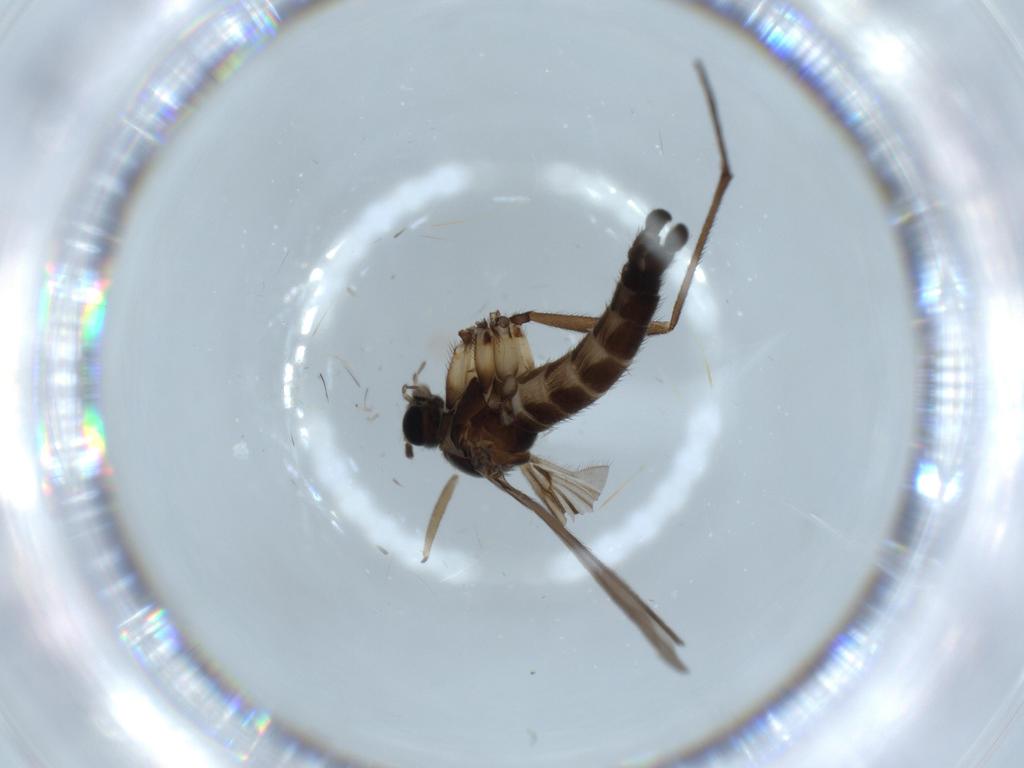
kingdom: Animalia
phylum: Arthropoda
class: Insecta
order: Diptera
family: Sciaridae
